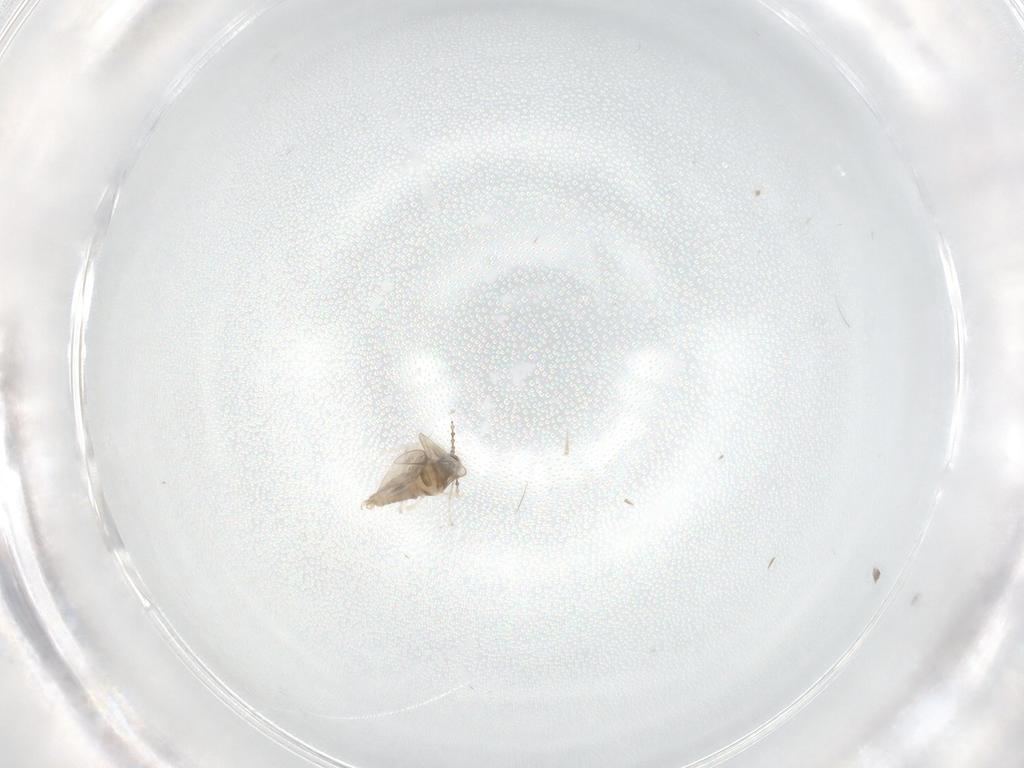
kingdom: Animalia
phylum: Arthropoda
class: Insecta
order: Diptera
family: Cecidomyiidae
